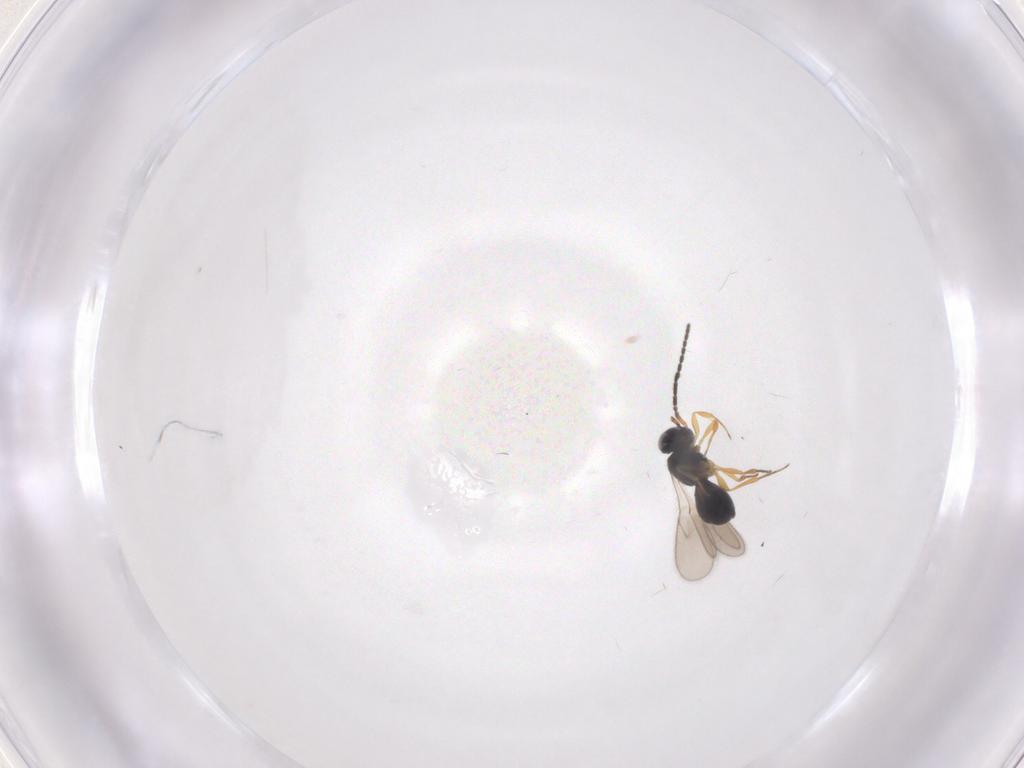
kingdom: Animalia
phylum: Arthropoda
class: Insecta
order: Hymenoptera
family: Scelionidae
